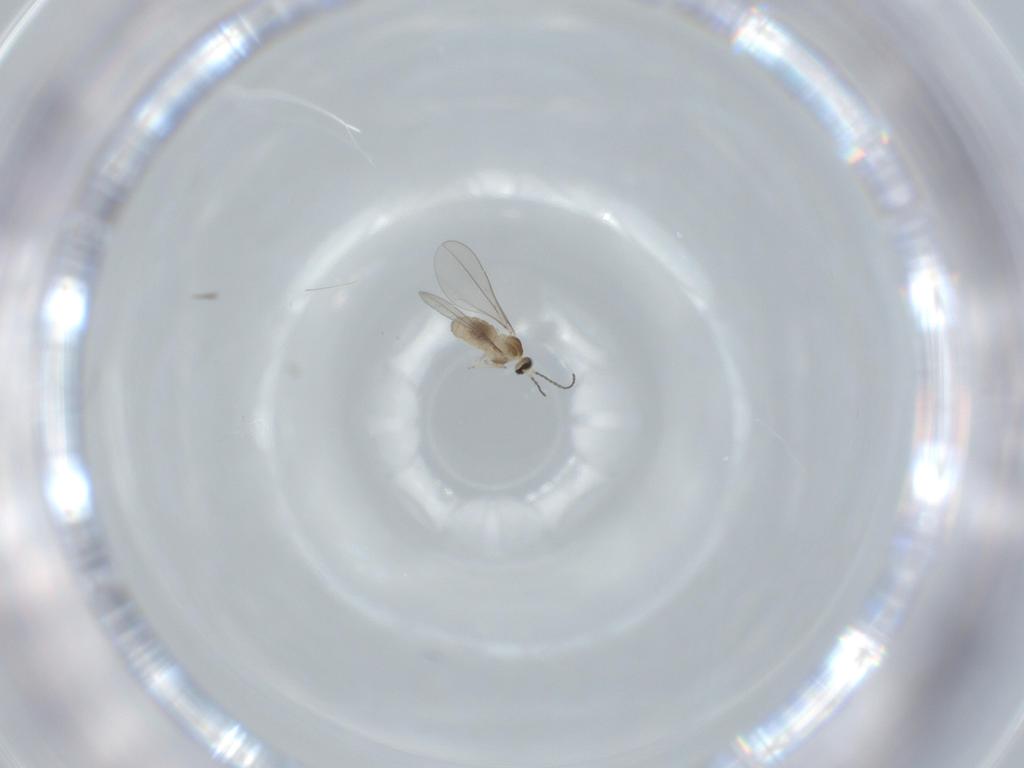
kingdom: Animalia
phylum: Arthropoda
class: Insecta
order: Diptera
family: Cecidomyiidae
